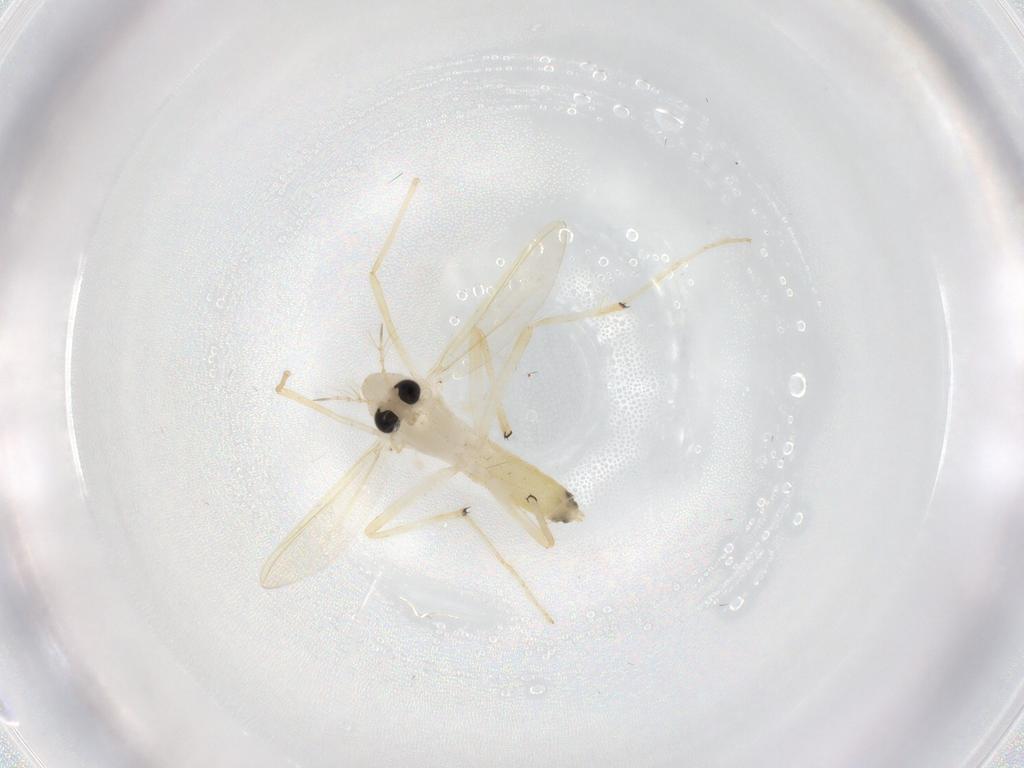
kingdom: Animalia
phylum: Arthropoda
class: Insecta
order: Diptera
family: Chironomidae
